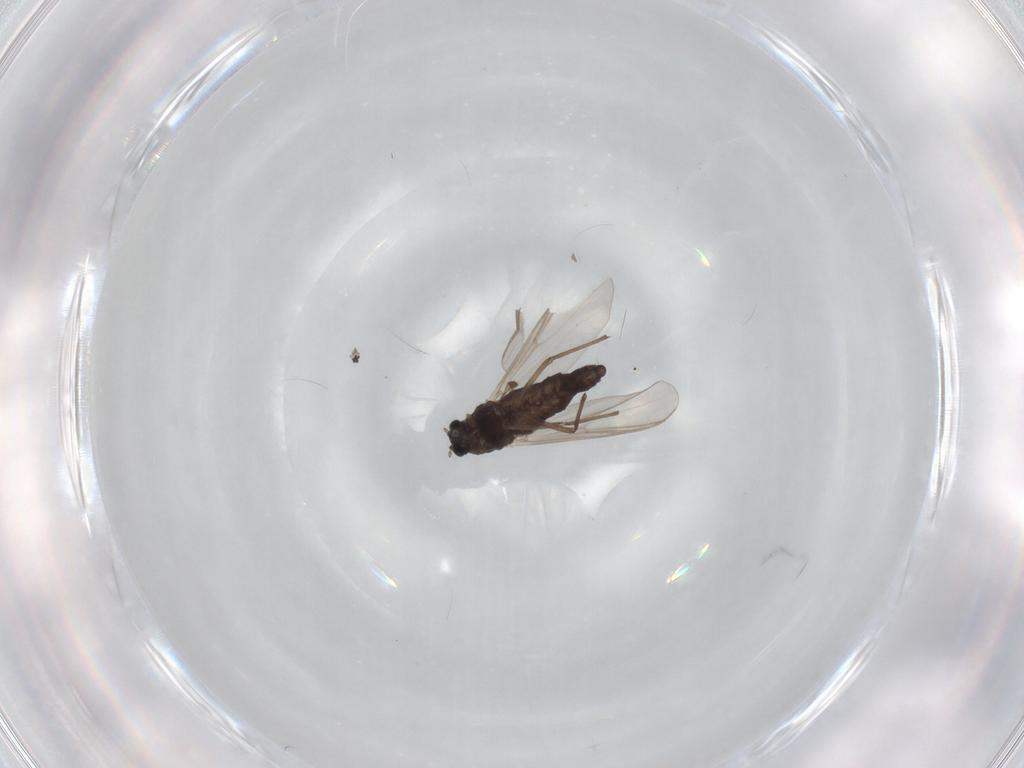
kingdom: Animalia
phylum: Arthropoda
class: Insecta
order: Diptera
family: Chironomidae
